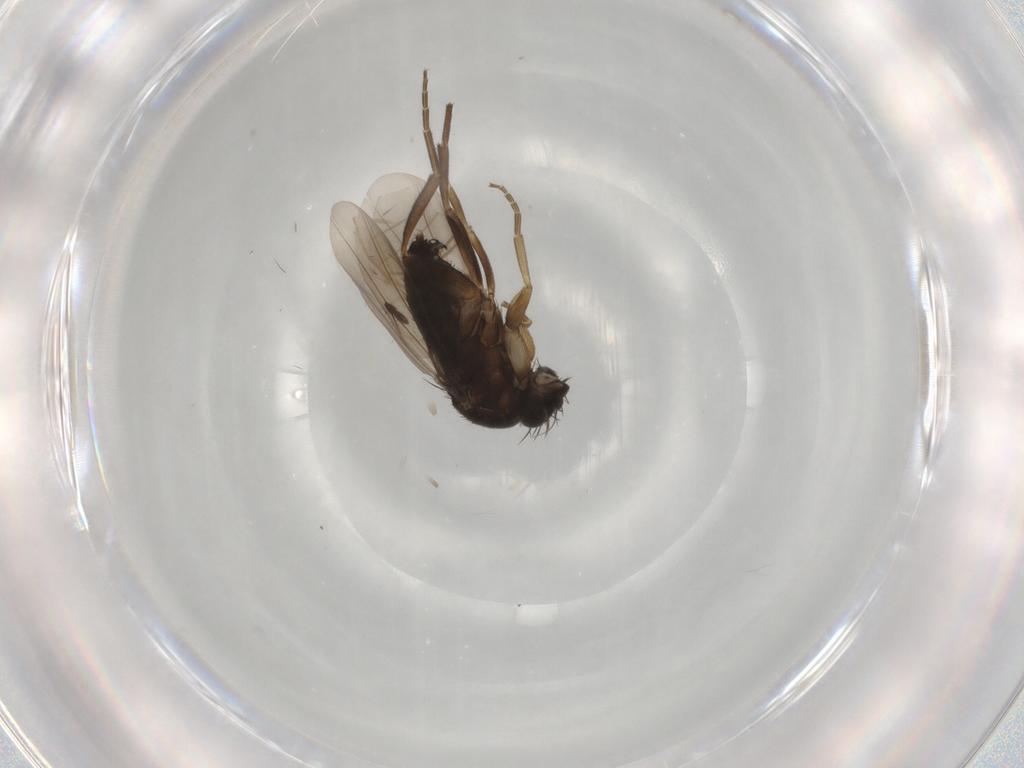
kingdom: Animalia
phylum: Arthropoda
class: Insecta
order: Diptera
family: Phoridae
